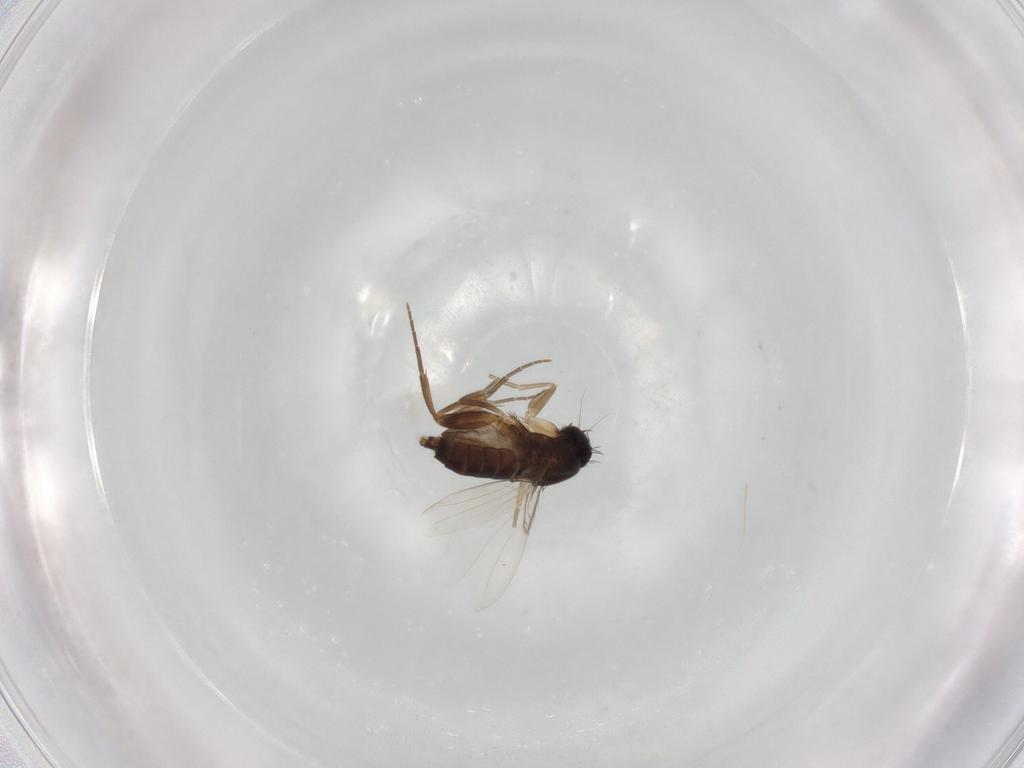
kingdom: Animalia
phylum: Arthropoda
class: Insecta
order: Diptera
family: Phoridae
